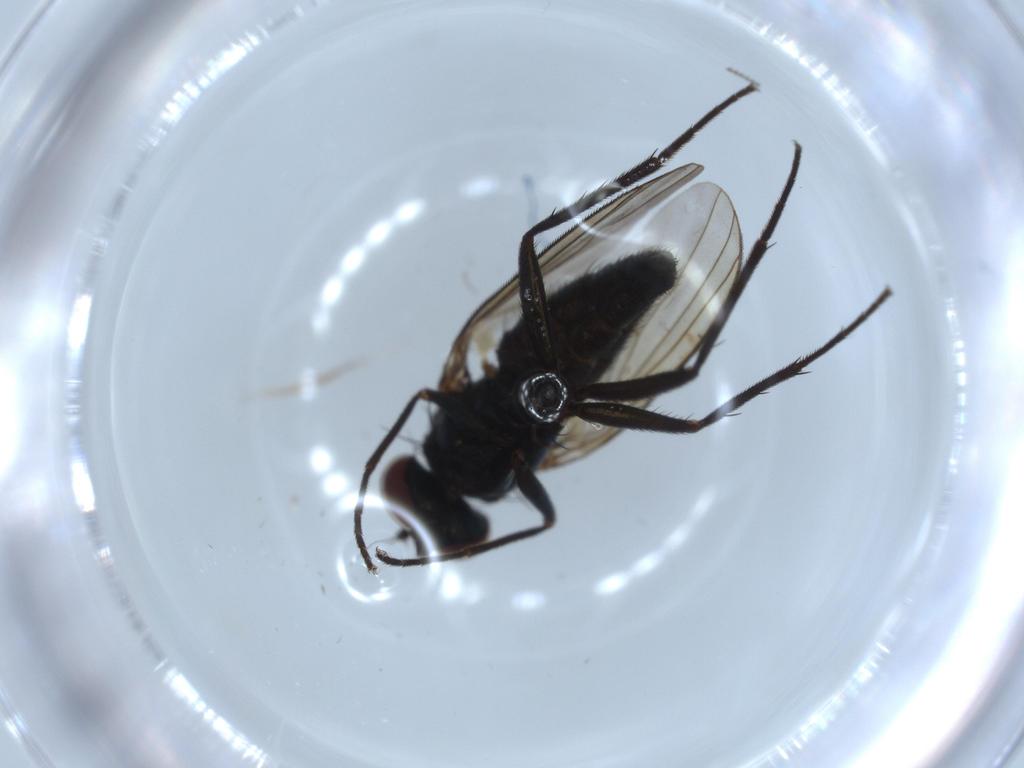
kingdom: Animalia
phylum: Arthropoda
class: Insecta
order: Diptera
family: Dolichopodidae
